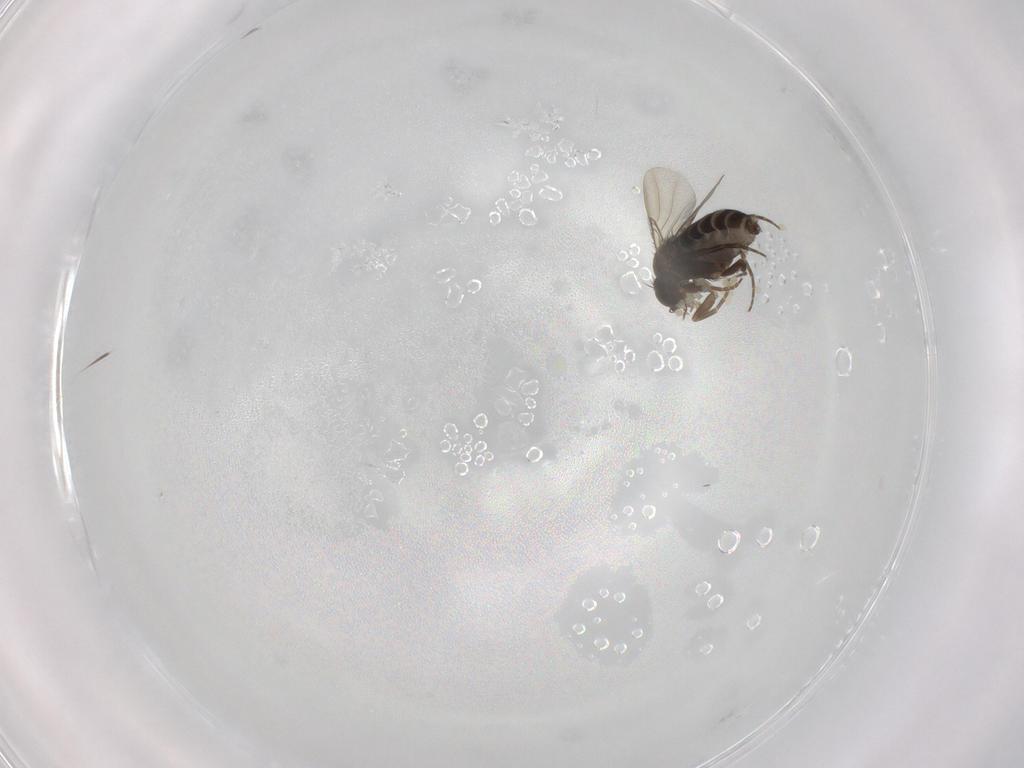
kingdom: Animalia
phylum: Arthropoda
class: Insecta
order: Diptera
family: Phoridae
